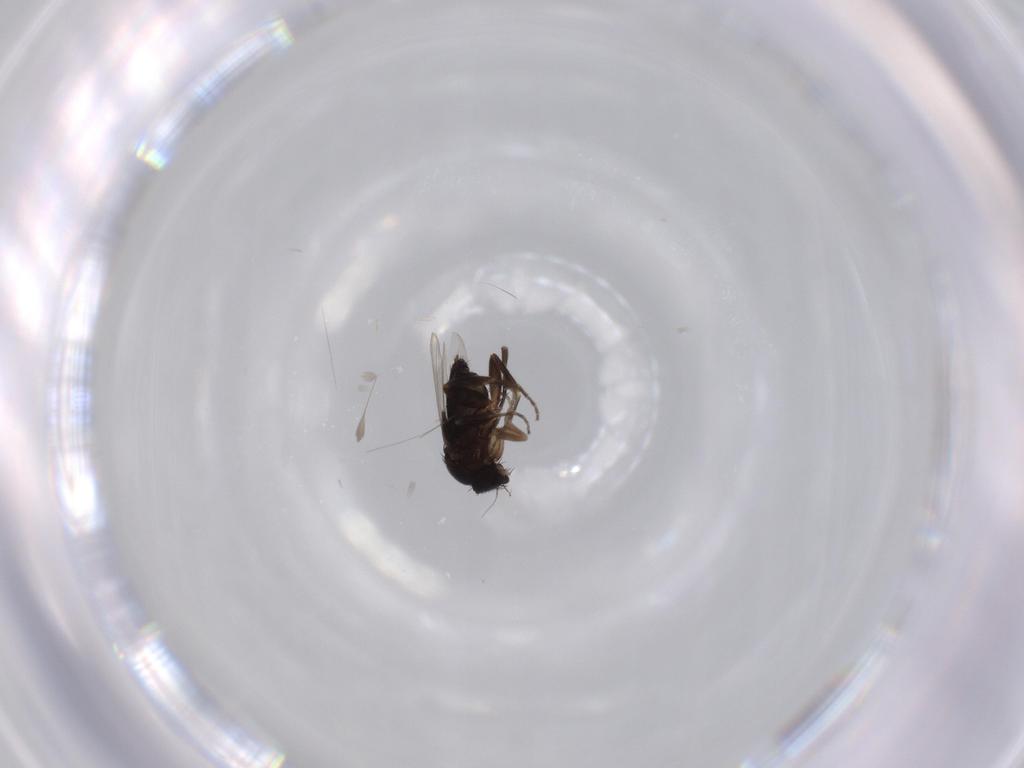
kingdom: Animalia
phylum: Arthropoda
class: Insecta
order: Diptera
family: Phoridae
